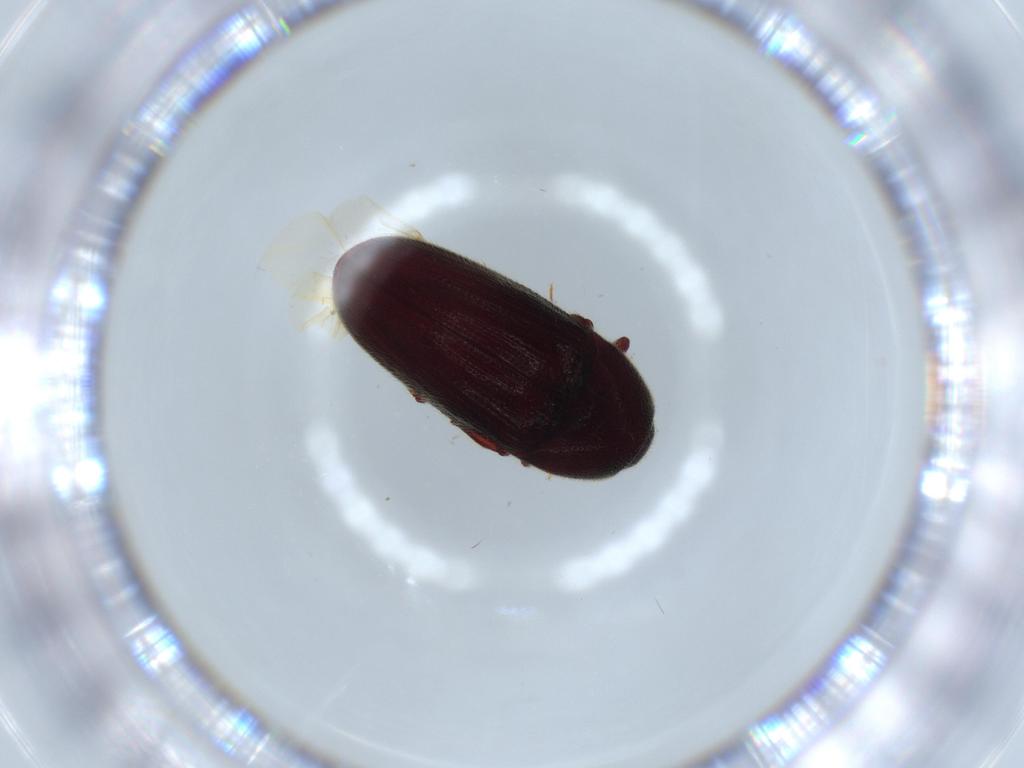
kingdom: Animalia
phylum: Arthropoda
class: Insecta
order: Coleoptera
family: Throscidae
